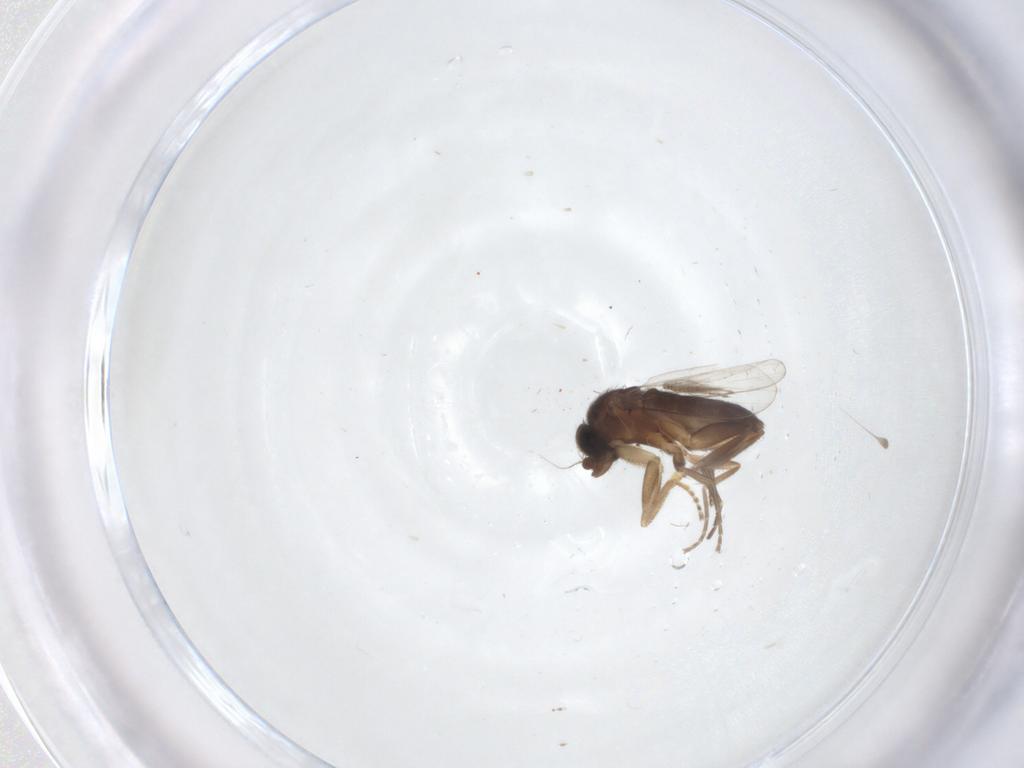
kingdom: Animalia
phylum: Arthropoda
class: Insecta
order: Diptera
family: Phoridae
